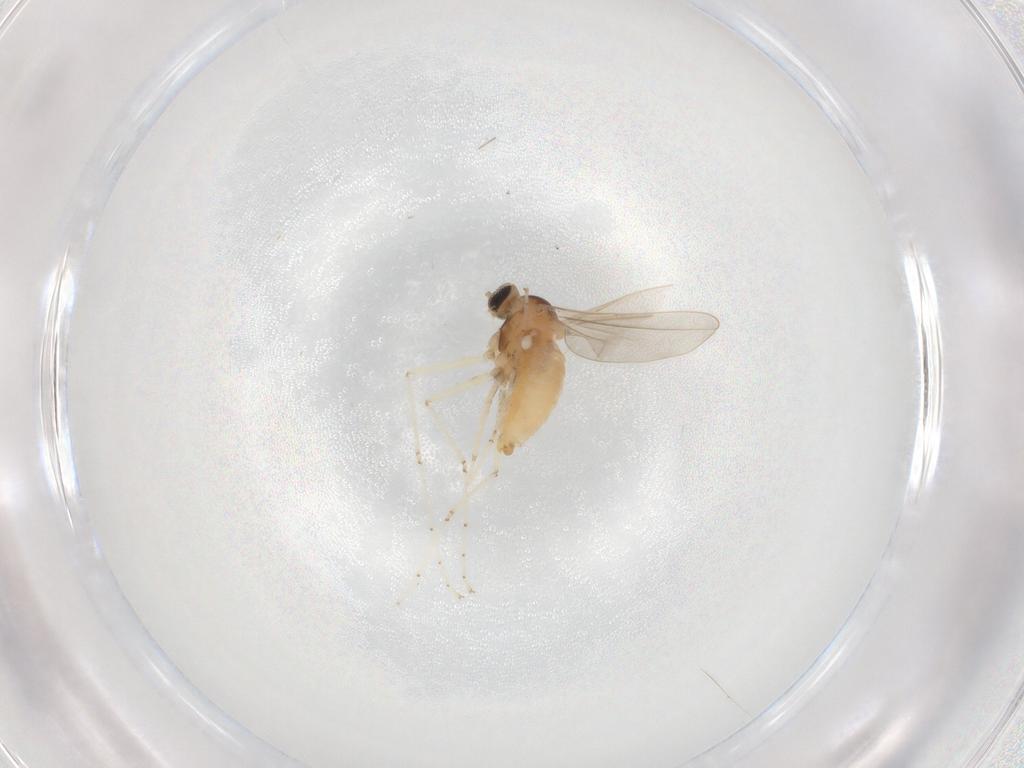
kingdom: Animalia
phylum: Arthropoda
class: Insecta
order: Diptera
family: Cecidomyiidae
